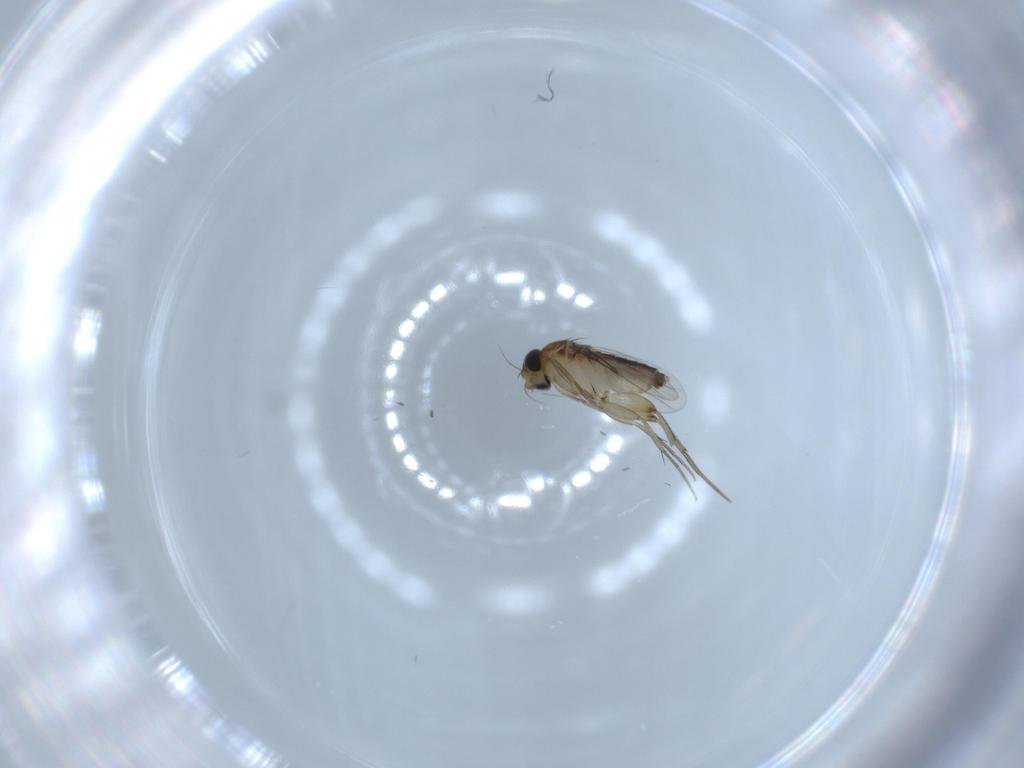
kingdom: Animalia
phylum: Arthropoda
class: Insecta
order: Diptera
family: Phoridae
